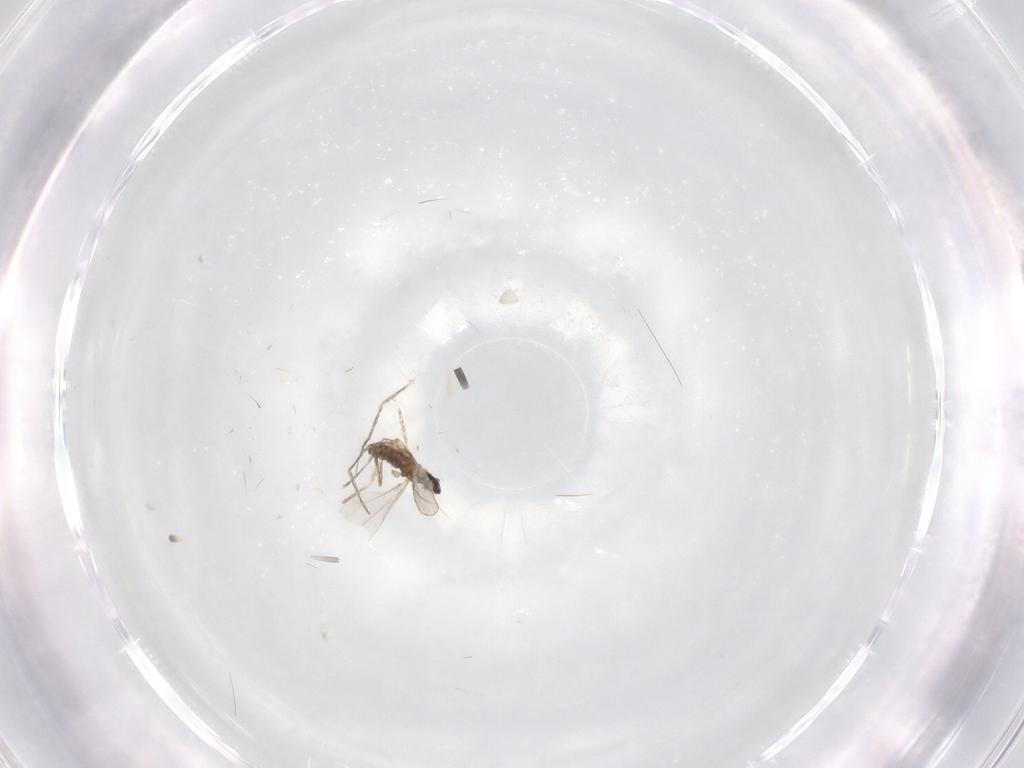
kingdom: Animalia
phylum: Arthropoda
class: Insecta
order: Diptera
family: Cecidomyiidae
